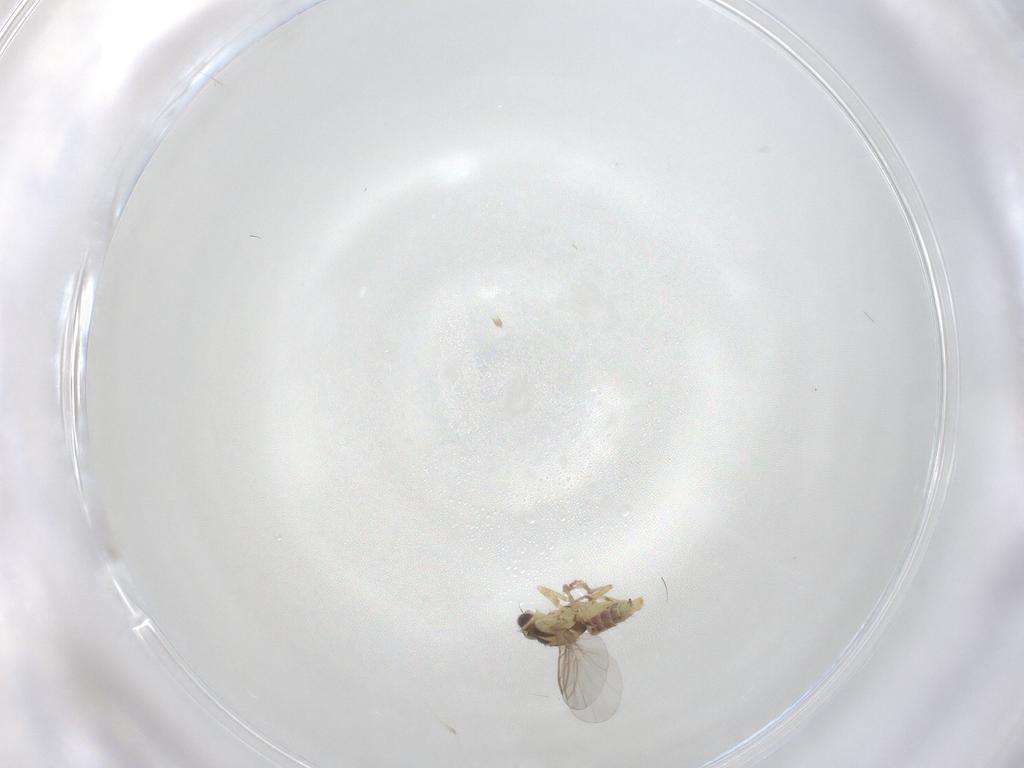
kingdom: Animalia
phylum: Arthropoda
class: Insecta
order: Diptera
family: Chironomidae
